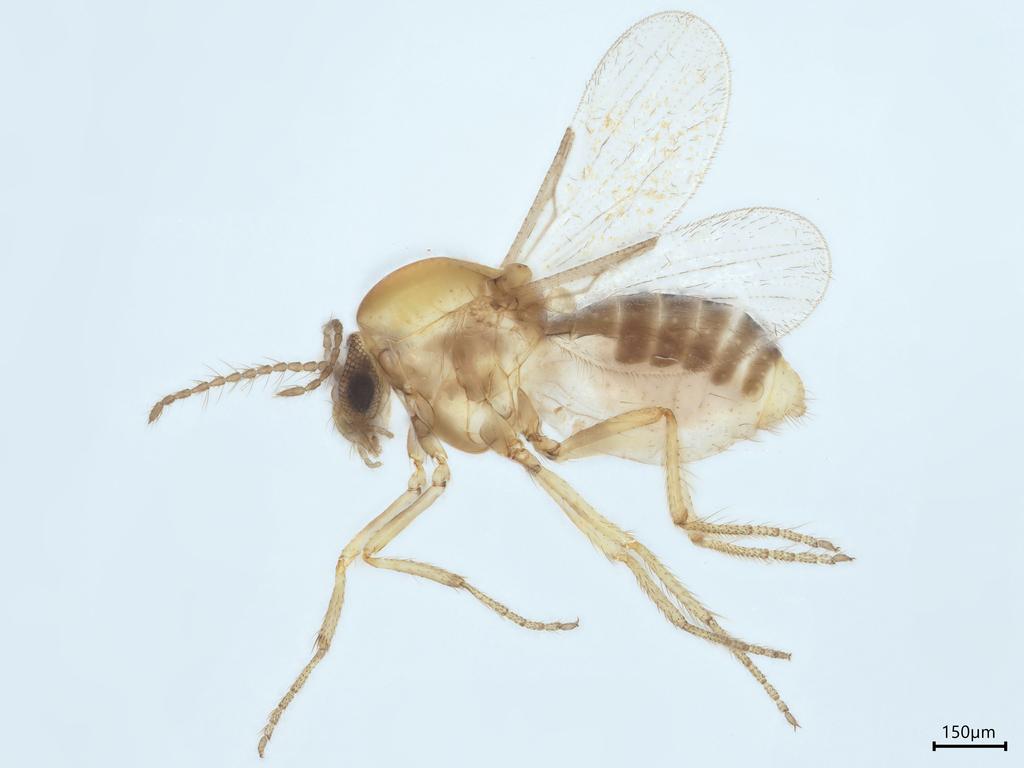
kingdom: Animalia
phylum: Arthropoda
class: Insecta
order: Diptera
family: Ceratopogonidae
